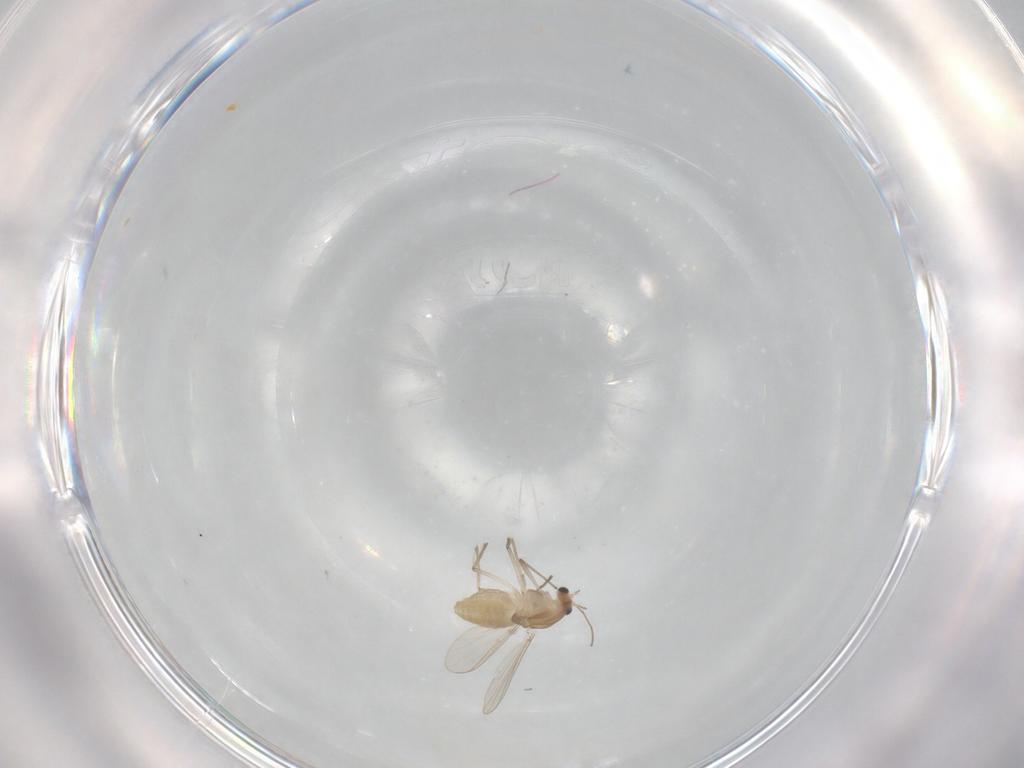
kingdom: Animalia
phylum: Arthropoda
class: Insecta
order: Diptera
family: Chironomidae
